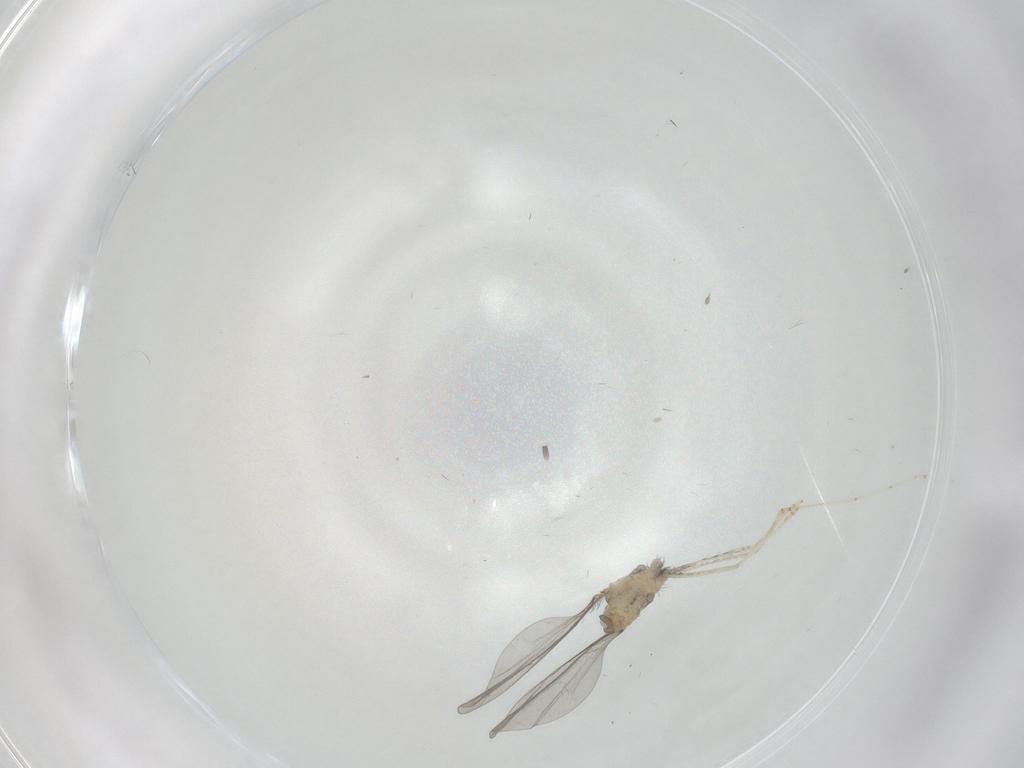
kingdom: Animalia
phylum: Arthropoda
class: Insecta
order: Diptera
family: Cecidomyiidae
